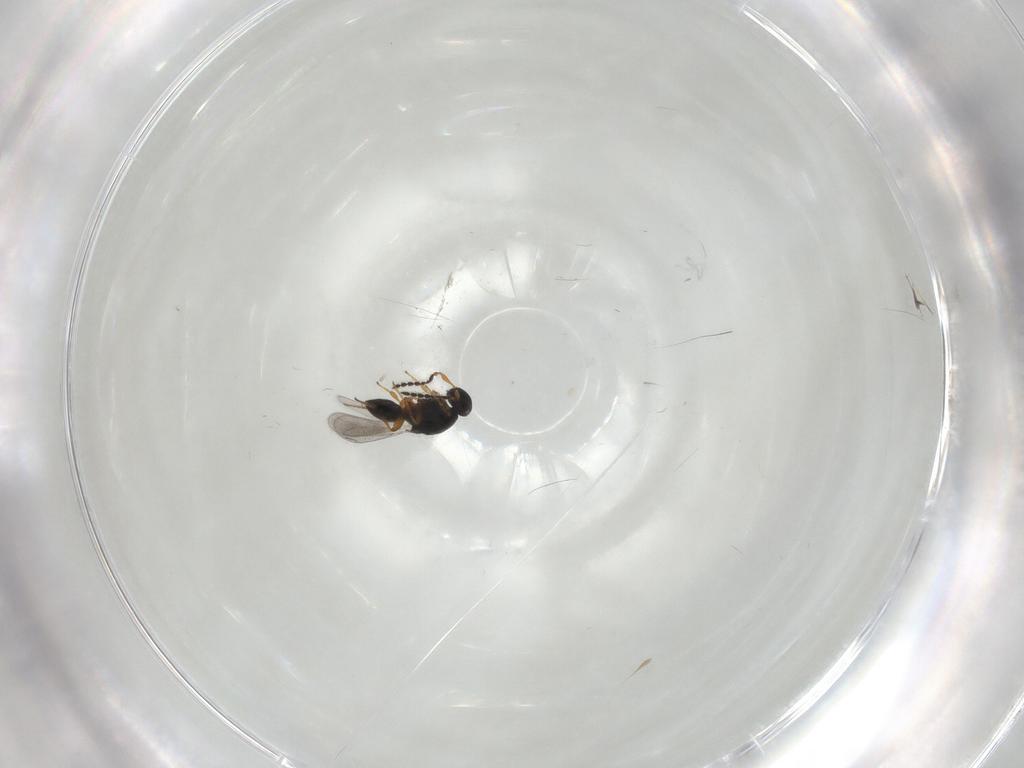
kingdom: Animalia
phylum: Arthropoda
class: Insecta
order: Hymenoptera
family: Platygastridae
